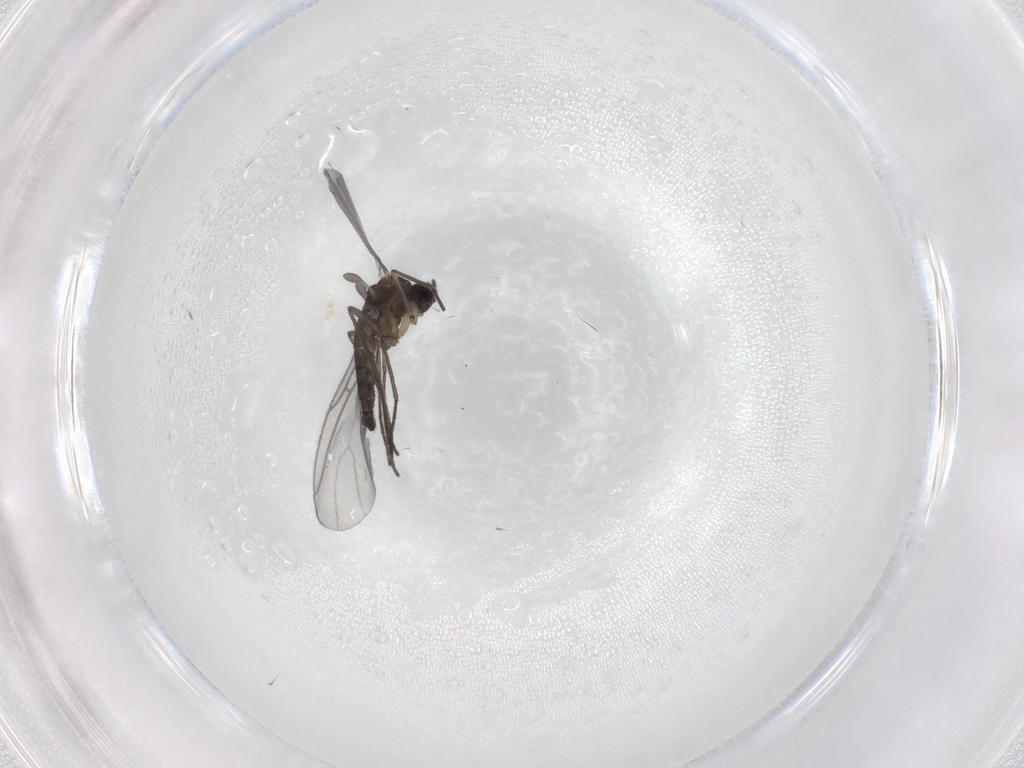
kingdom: Animalia
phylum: Arthropoda
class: Insecta
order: Diptera
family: Sciaridae
